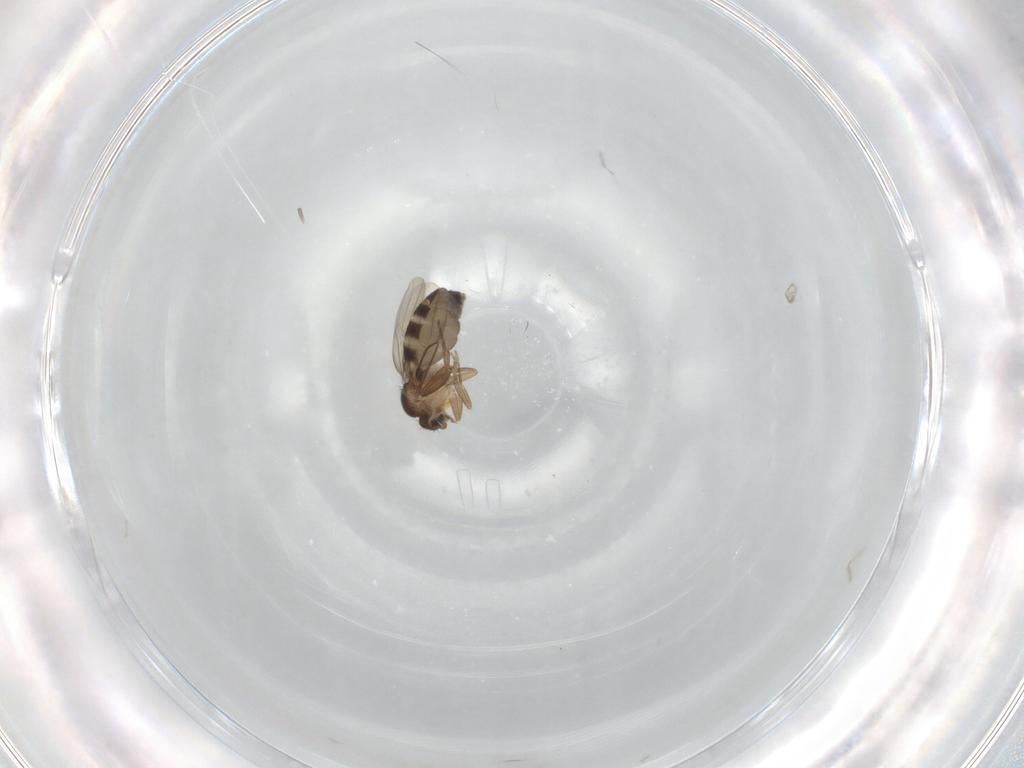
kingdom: Animalia
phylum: Arthropoda
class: Insecta
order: Diptera
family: Phoridae
